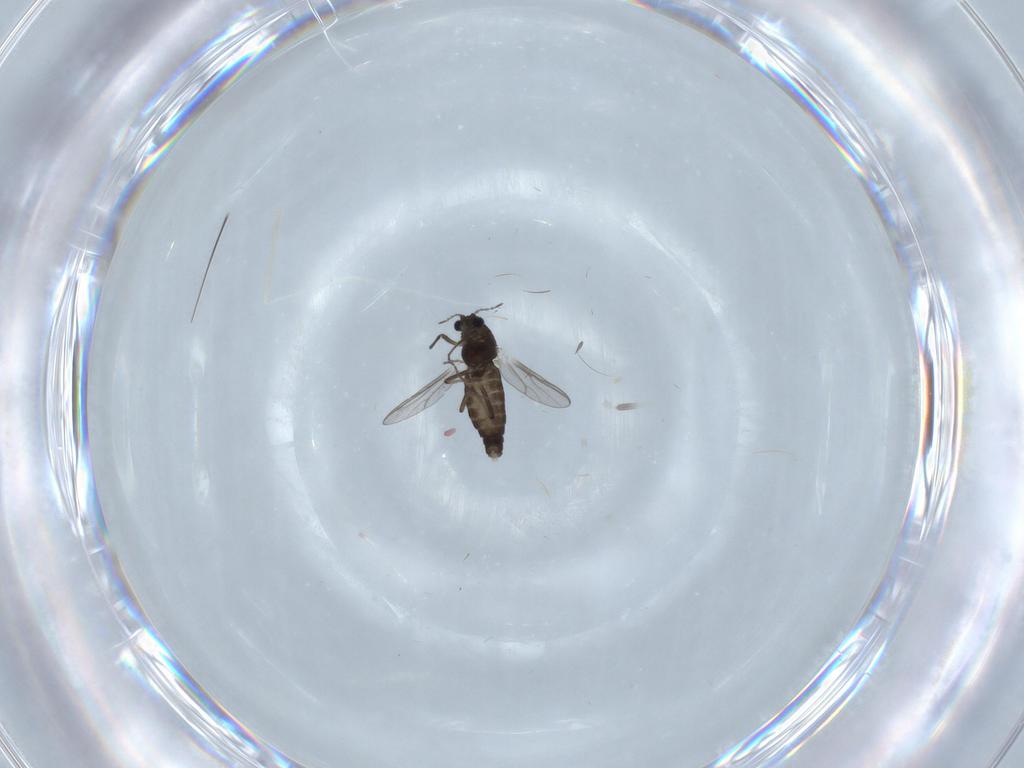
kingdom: Animalia
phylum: Arthropoda
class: Insecta
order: Diptera
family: Chironomidae
